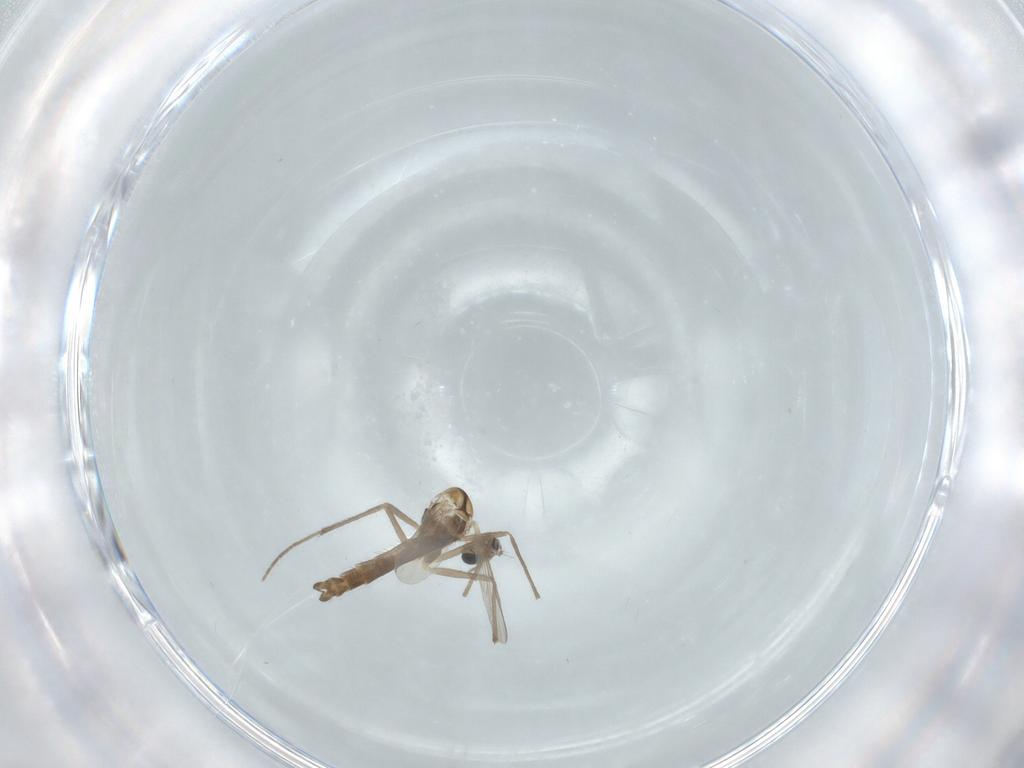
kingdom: Animalia
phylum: Arthropoda
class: Insecta
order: Diptera
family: Chironomidae
